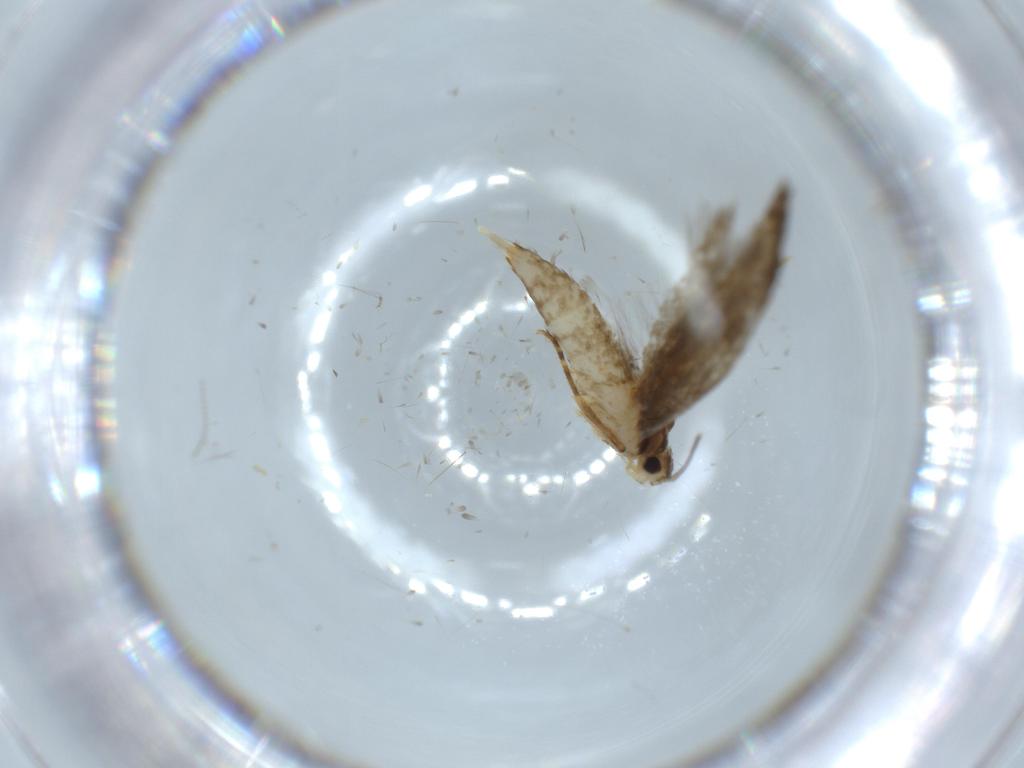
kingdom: Animalia
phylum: Arthropoda
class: Insecta
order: Lepidoptera
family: Tineidae
